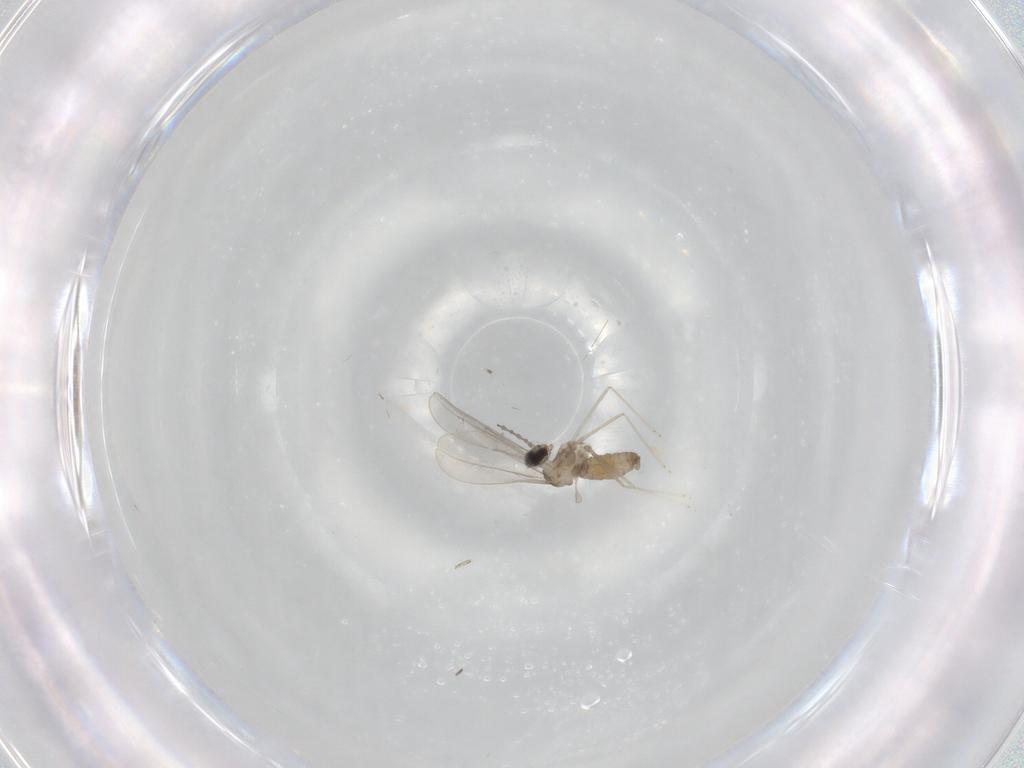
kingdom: Animalia
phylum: Arthropoda
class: Insecta
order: Diptera
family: Cecidomyiidae
